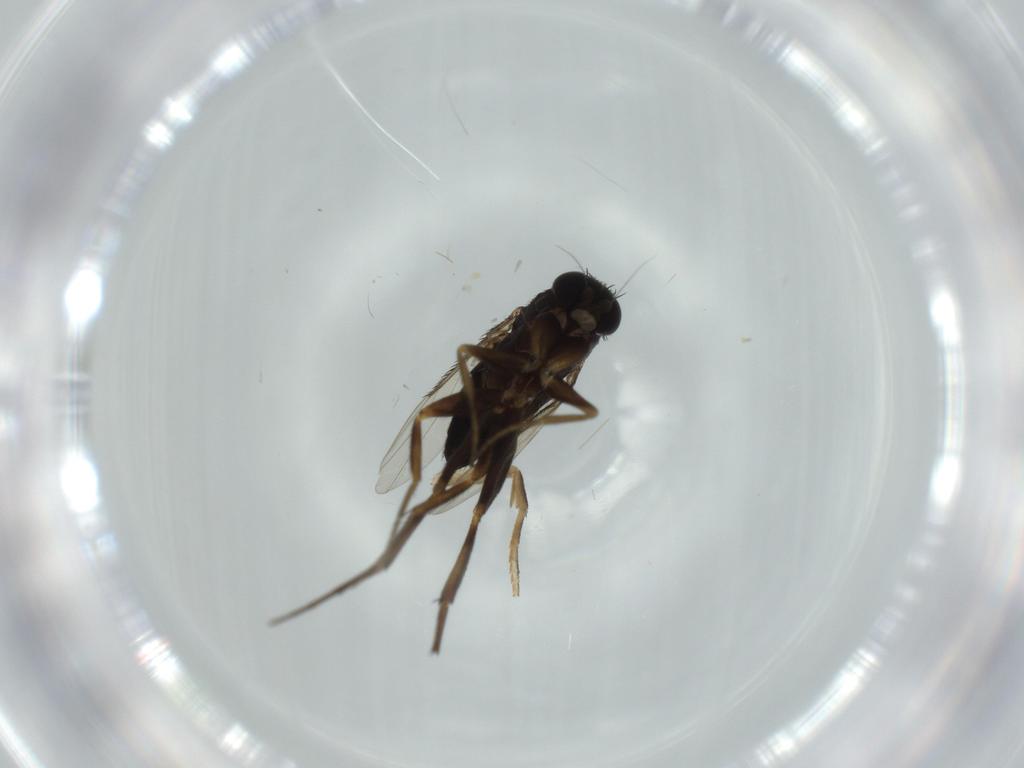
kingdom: Animalia
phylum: Arthropoda
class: Insecta
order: Diptera
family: Phoridae
